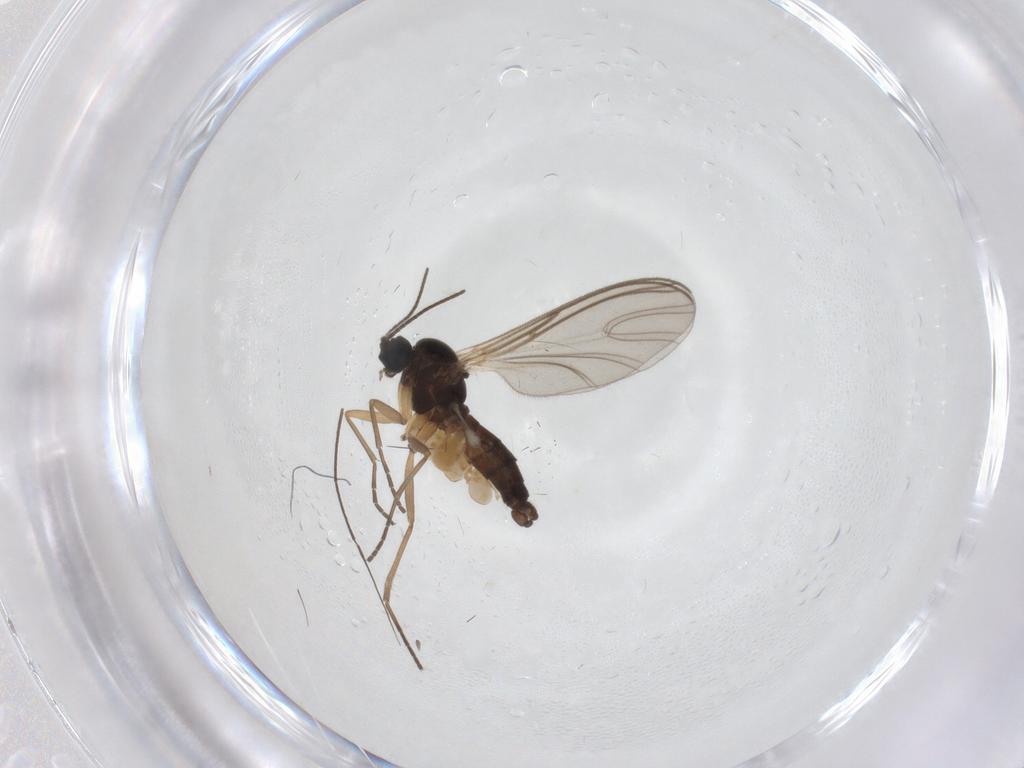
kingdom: Animalia
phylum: Arthropoda
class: Insecta
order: Diptera
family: Sciaridae
